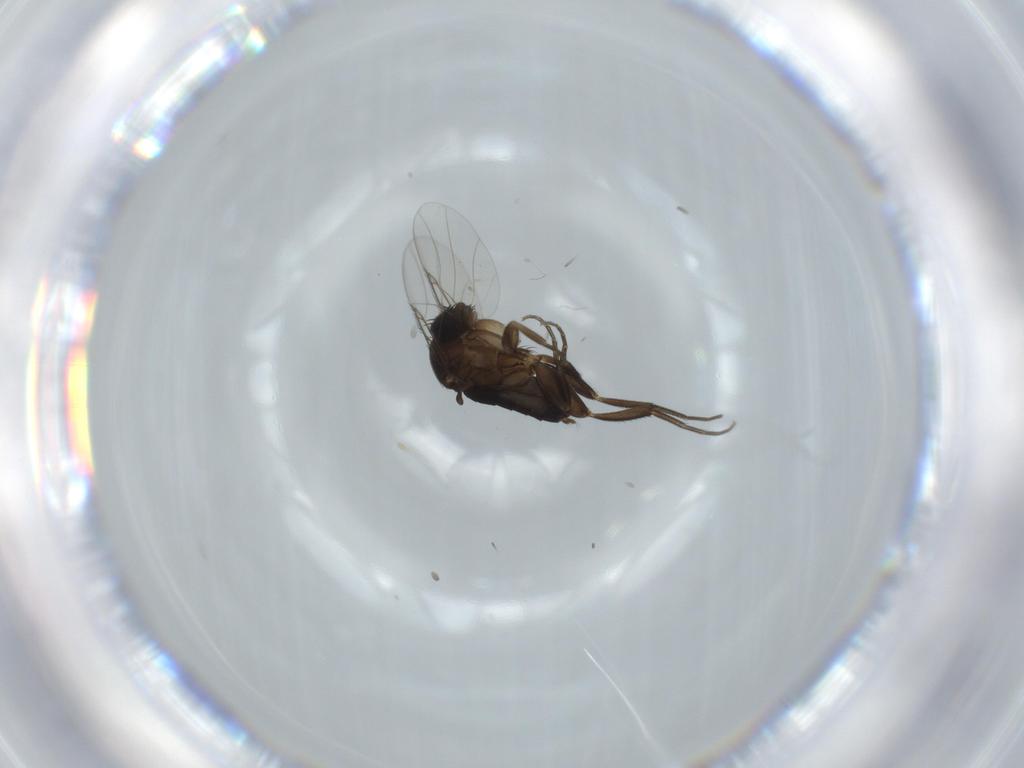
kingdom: Animalia
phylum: Arthropoda
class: Insecta
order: Diptera
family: Phoridae
